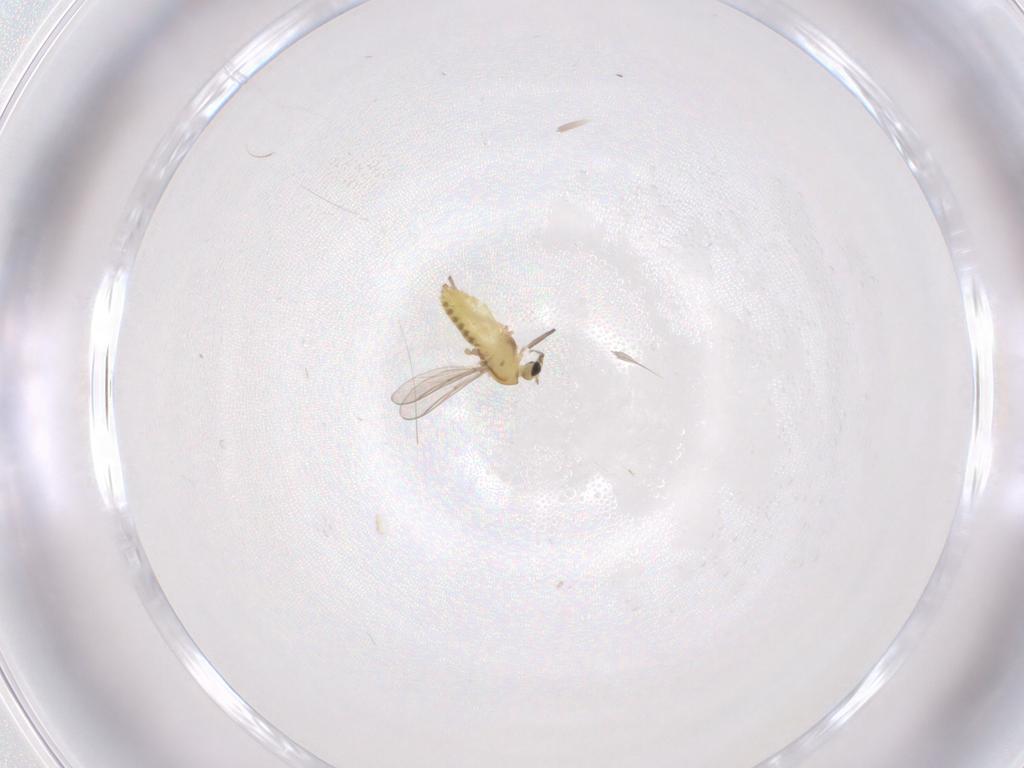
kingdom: Animalia
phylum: Arthropoda
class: Insecta
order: Diptera
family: Chironomidae
